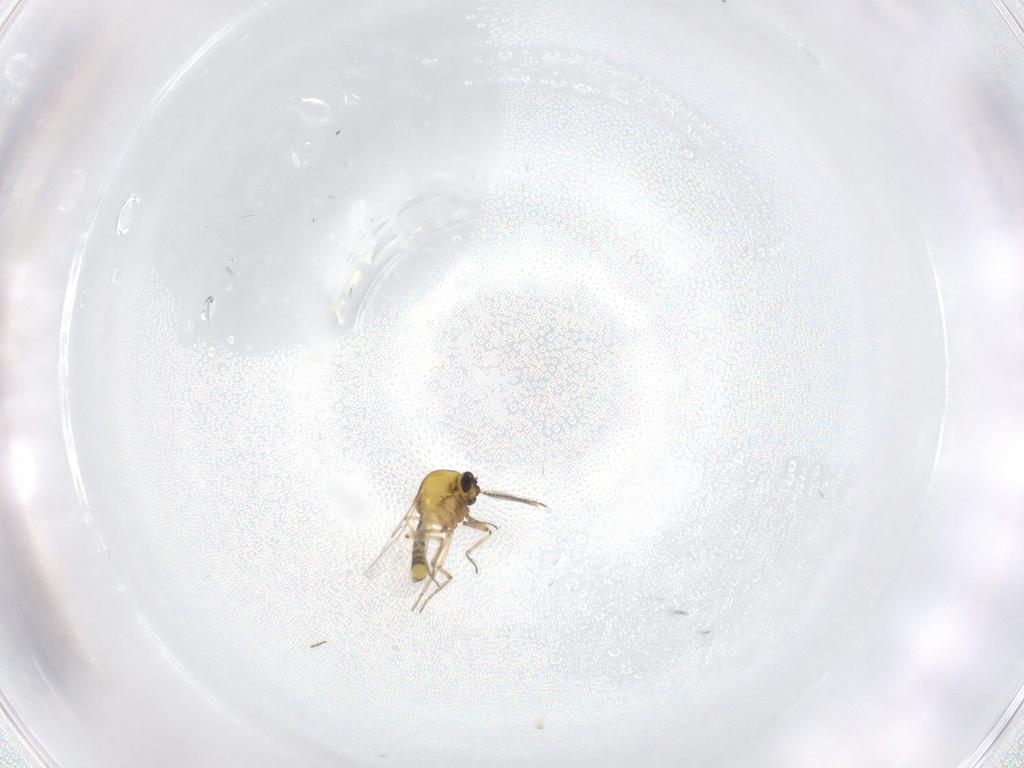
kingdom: Animalia
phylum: Arthropoda
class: Insecta
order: Diptera
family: Ceratopogonidae
